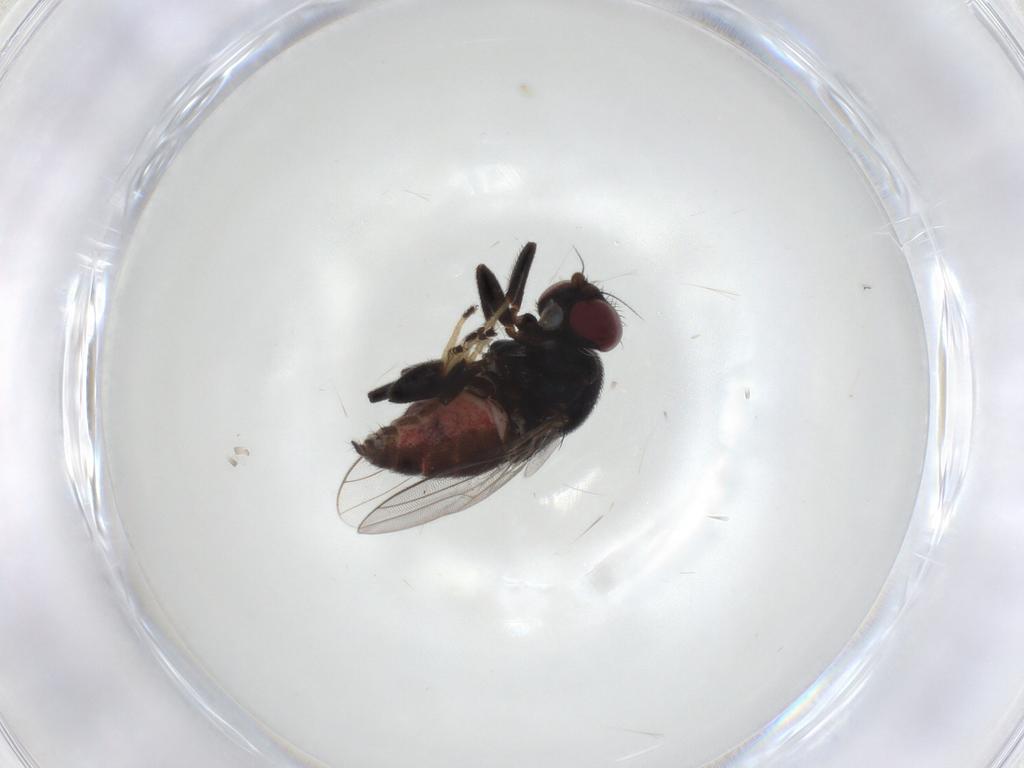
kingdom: Animalia
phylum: Arthropoda
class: Insecta
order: Diptera
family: Chloropidae
